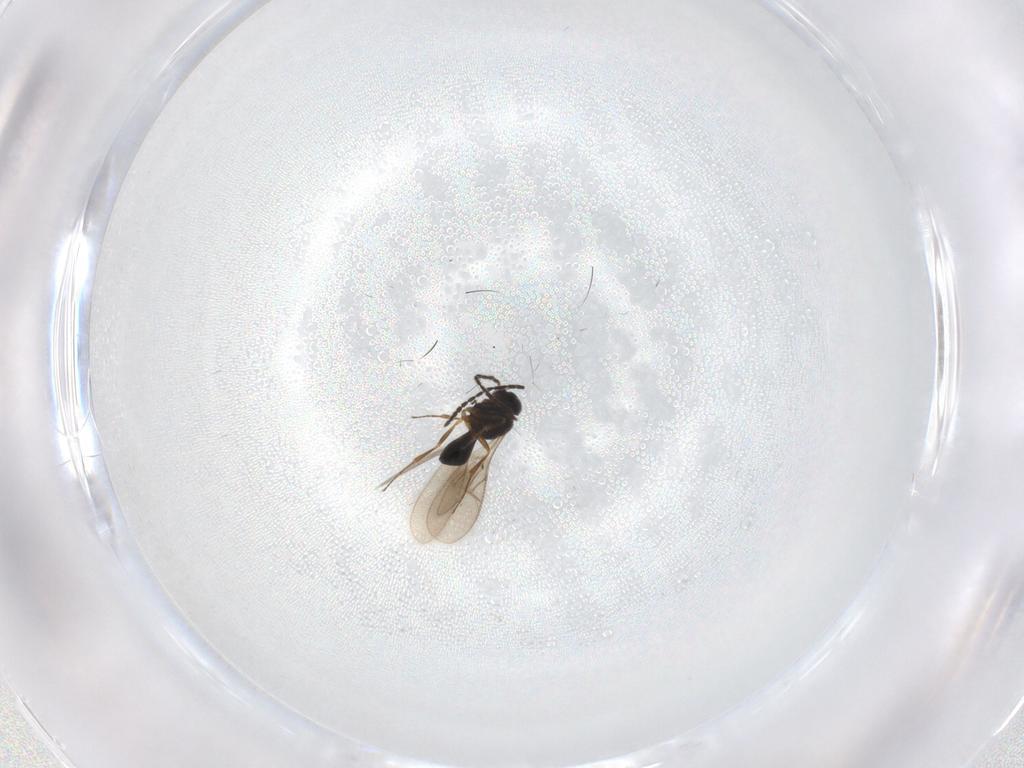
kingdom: Animalia
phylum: Arthropoda
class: Insecta
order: Hymenoptera
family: Scelionidae
